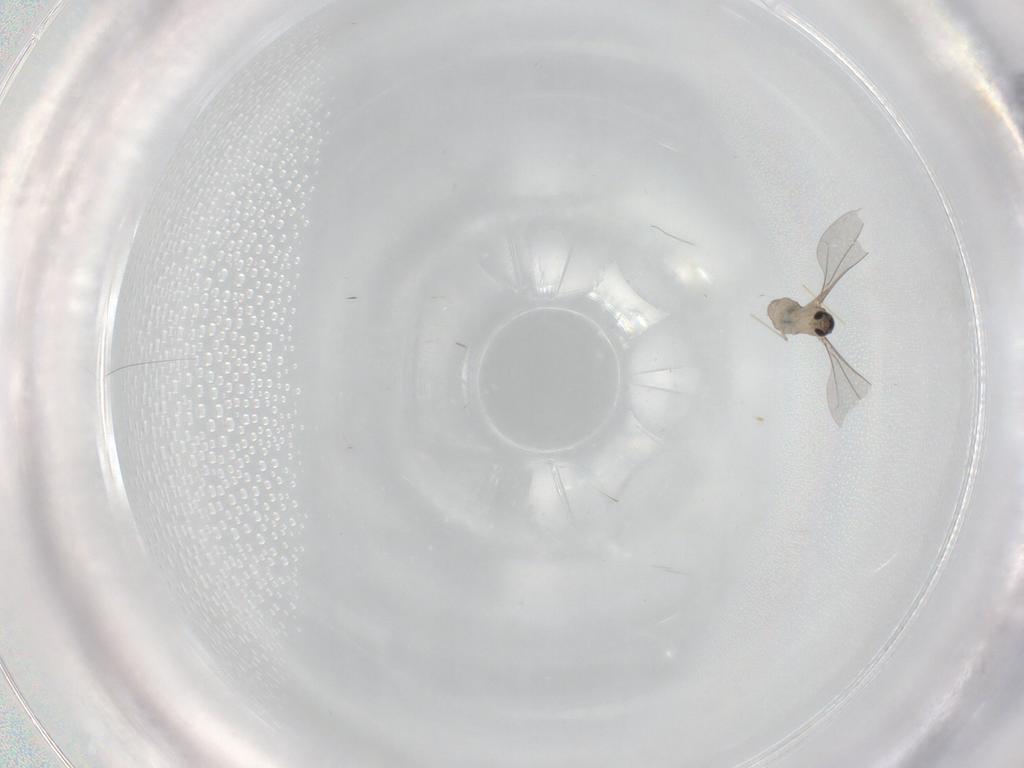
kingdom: Animalia
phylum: Arthropoda
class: Insecta
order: Diptera
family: Cecidomyiidae
